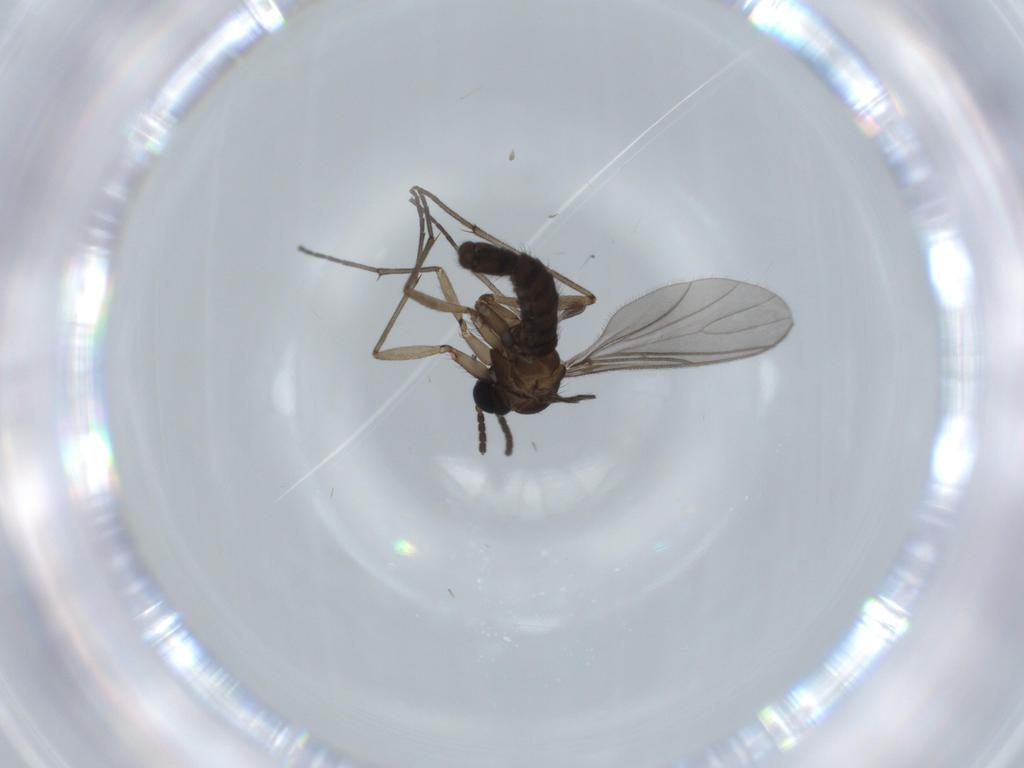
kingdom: Animalia
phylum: Arthropoda
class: Insecta
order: Diptera
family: Sciaridae
